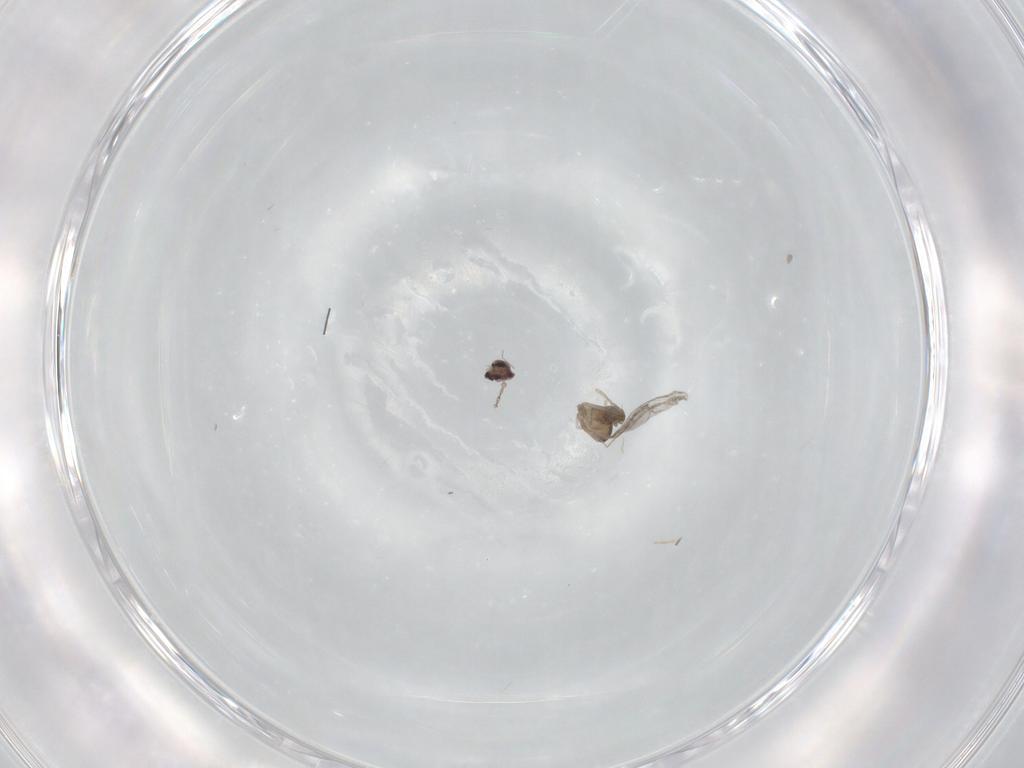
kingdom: Animalia
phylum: Arthropoda
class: Insecta
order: Diptera
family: Cecidomyiidae
